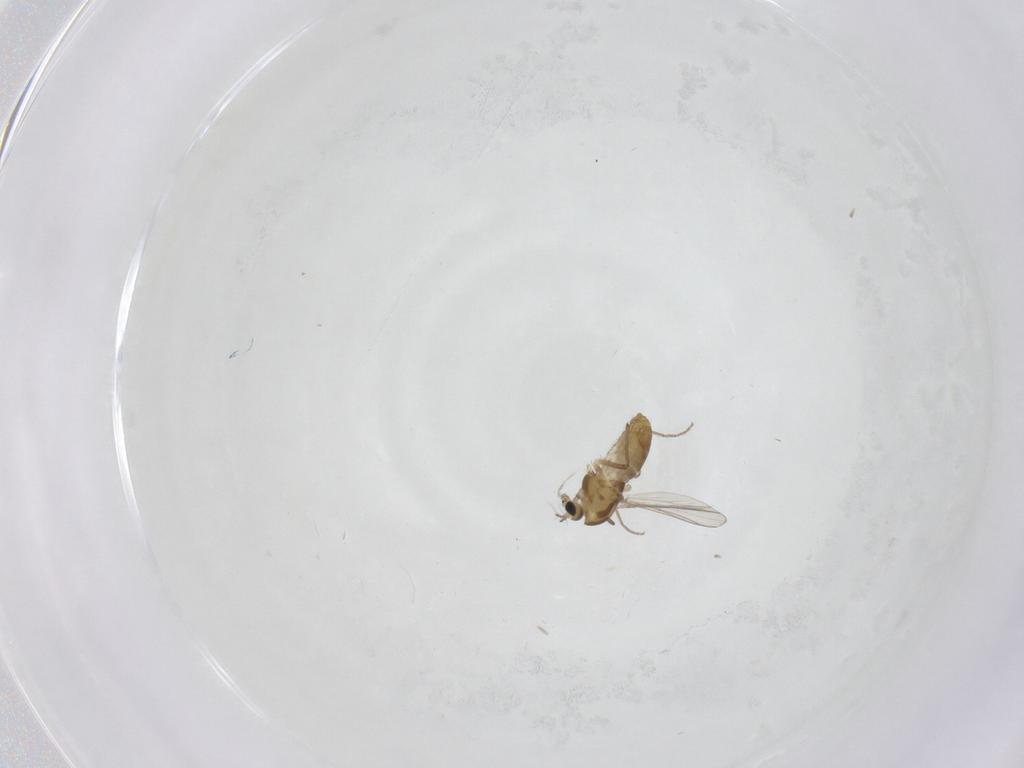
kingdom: Animalia
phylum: Arthropoda
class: Insecta
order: Diptera
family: Chironomidae
